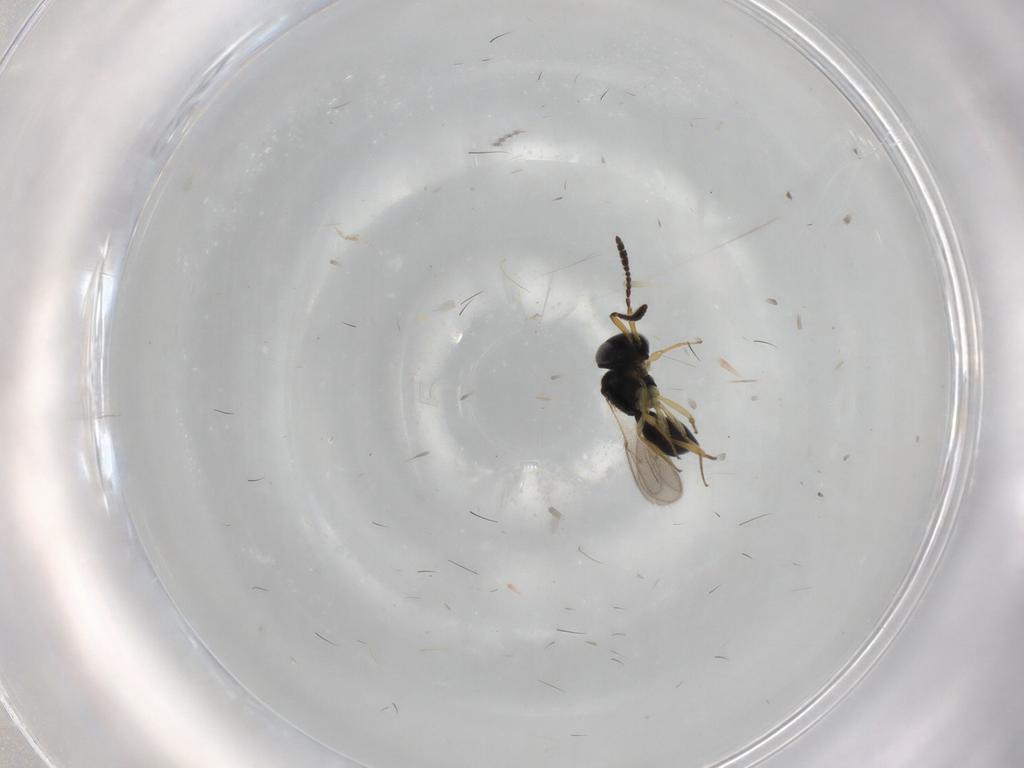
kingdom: Animalia
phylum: Arthropoda
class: Insecta
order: Hymenoptera
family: Scelionidae
